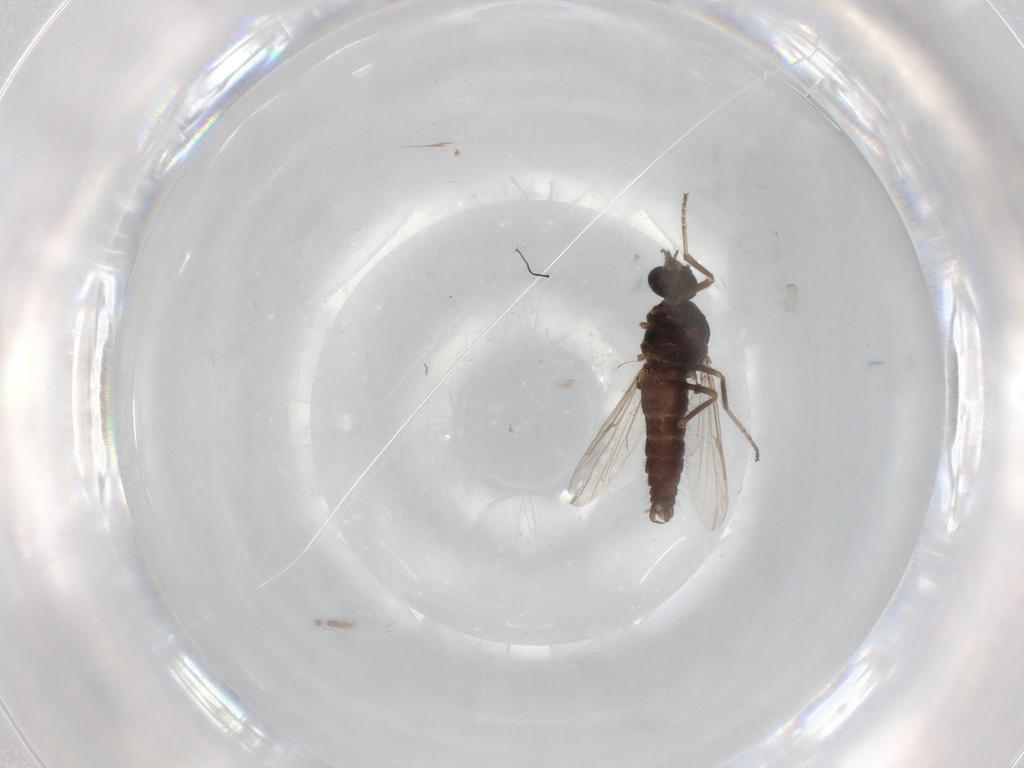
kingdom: Animalia
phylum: Arthropoda
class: Insecta
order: Diptera
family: Ceratopogonidae
